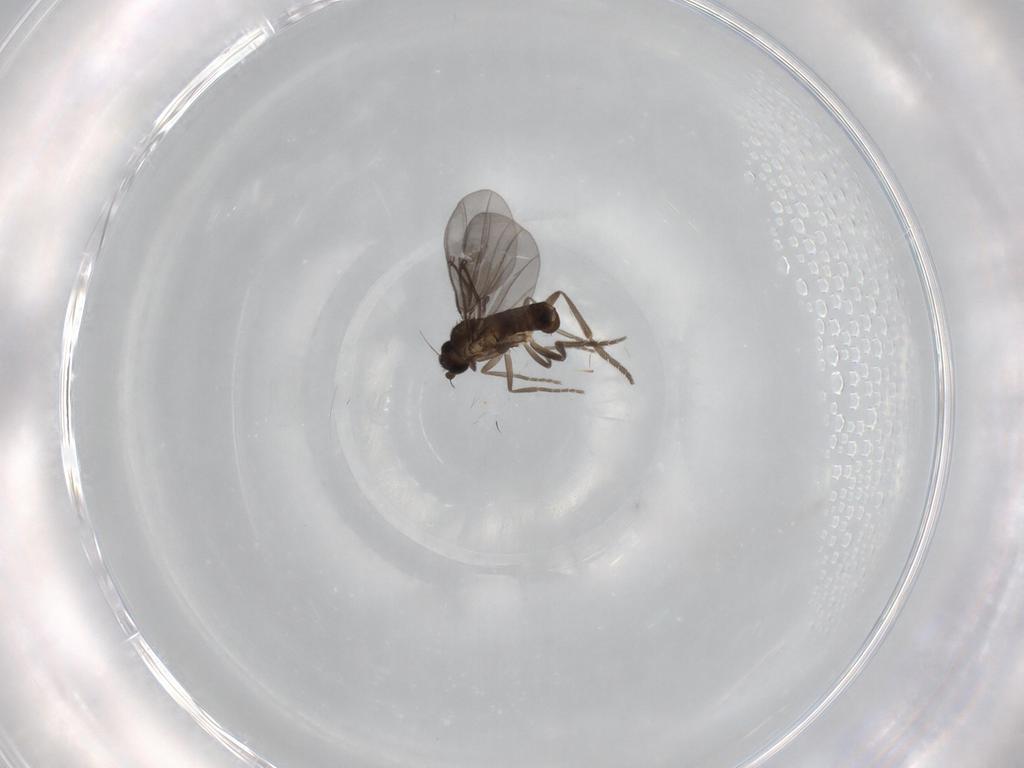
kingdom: Animalia
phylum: Arthropoda
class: Insecta
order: Diptera
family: Phoridae
